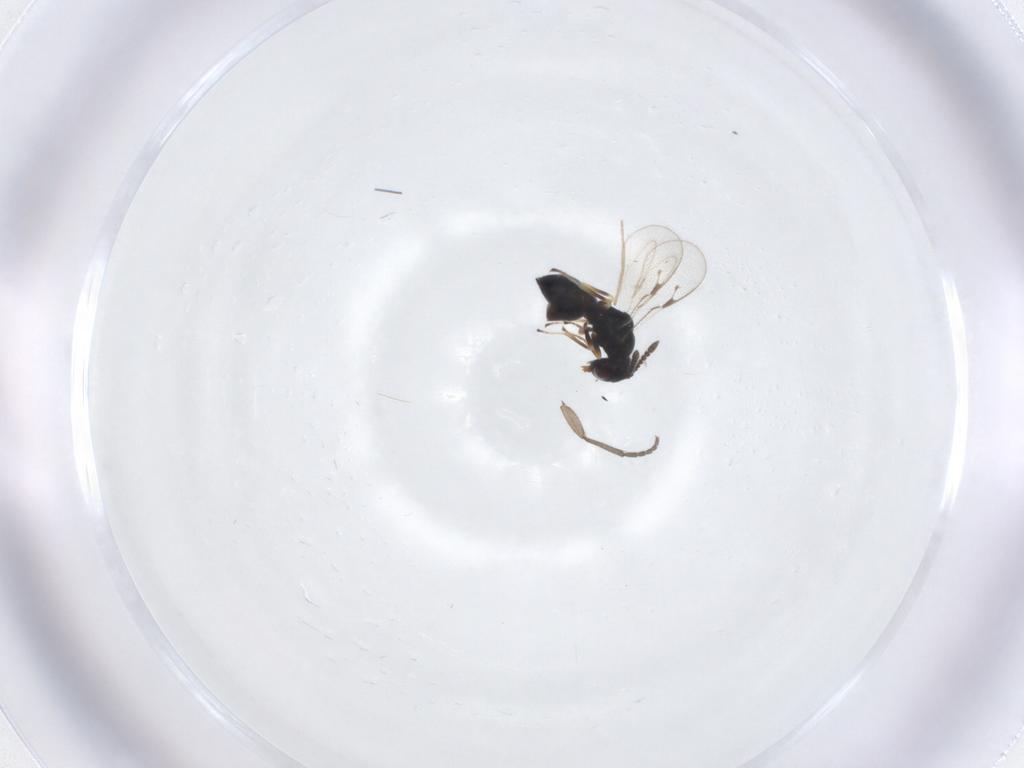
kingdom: Animalia
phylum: Arthropoda
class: Insecta
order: Hymenoptera
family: Pteromalidae
